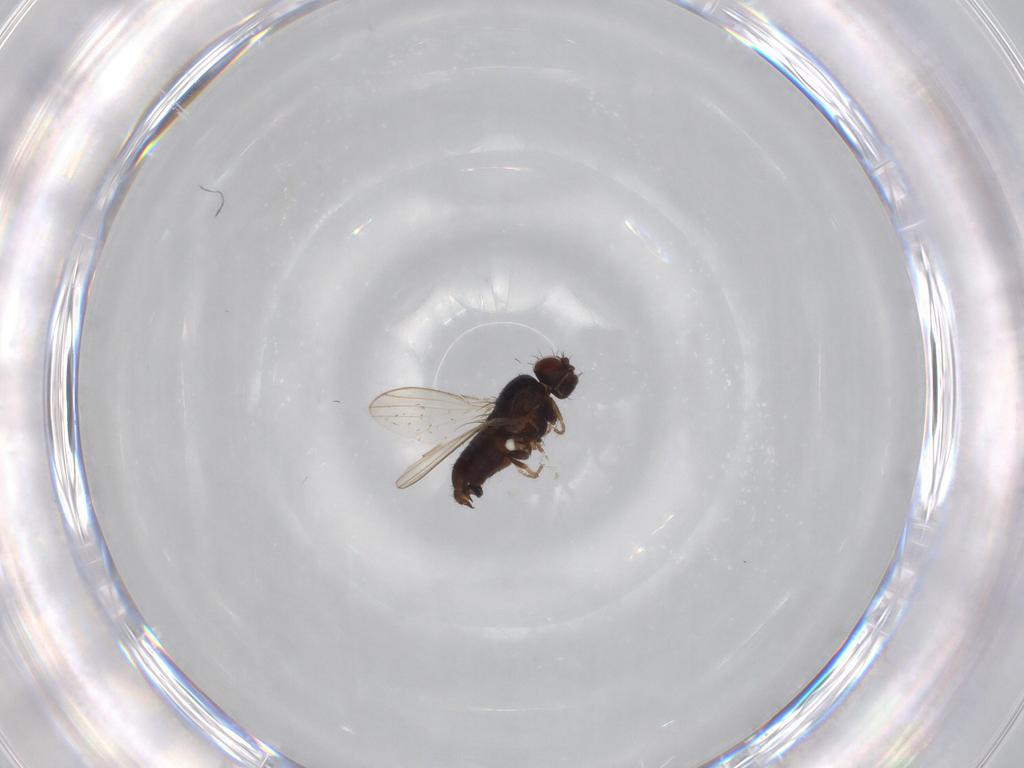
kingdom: Animalia
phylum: Arthropoda
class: Insecta
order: Diptera
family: Carnidae
